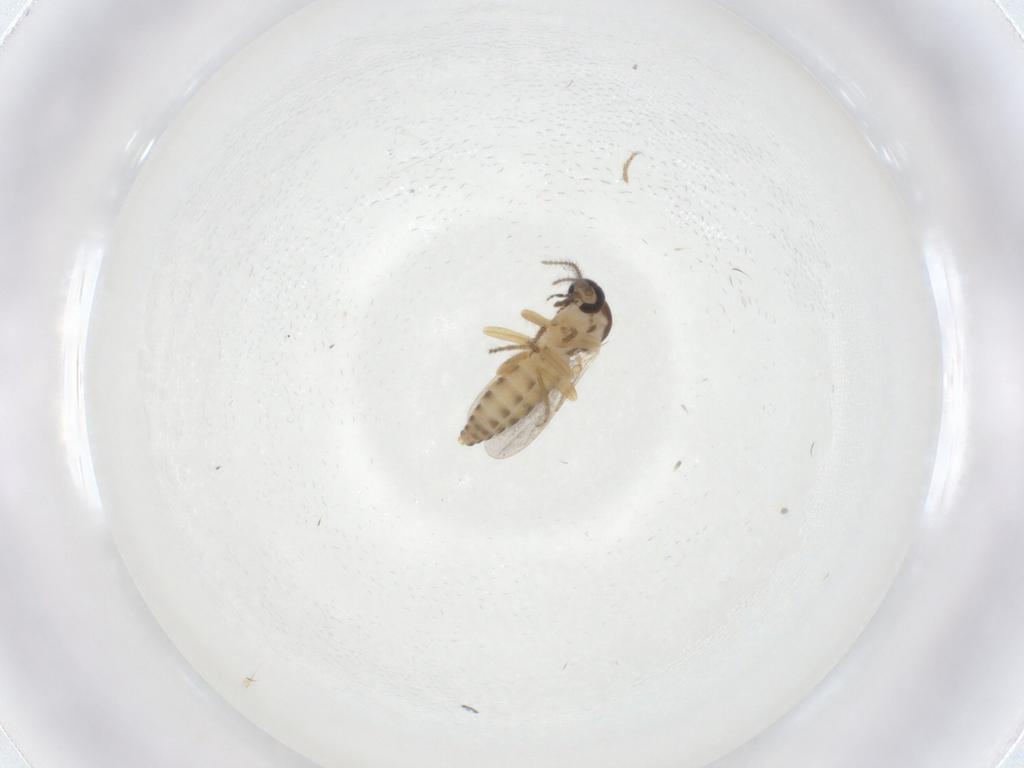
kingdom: Animalia
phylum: Arthropoda
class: Insecta
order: Diptera
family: Ceratopogonidae
